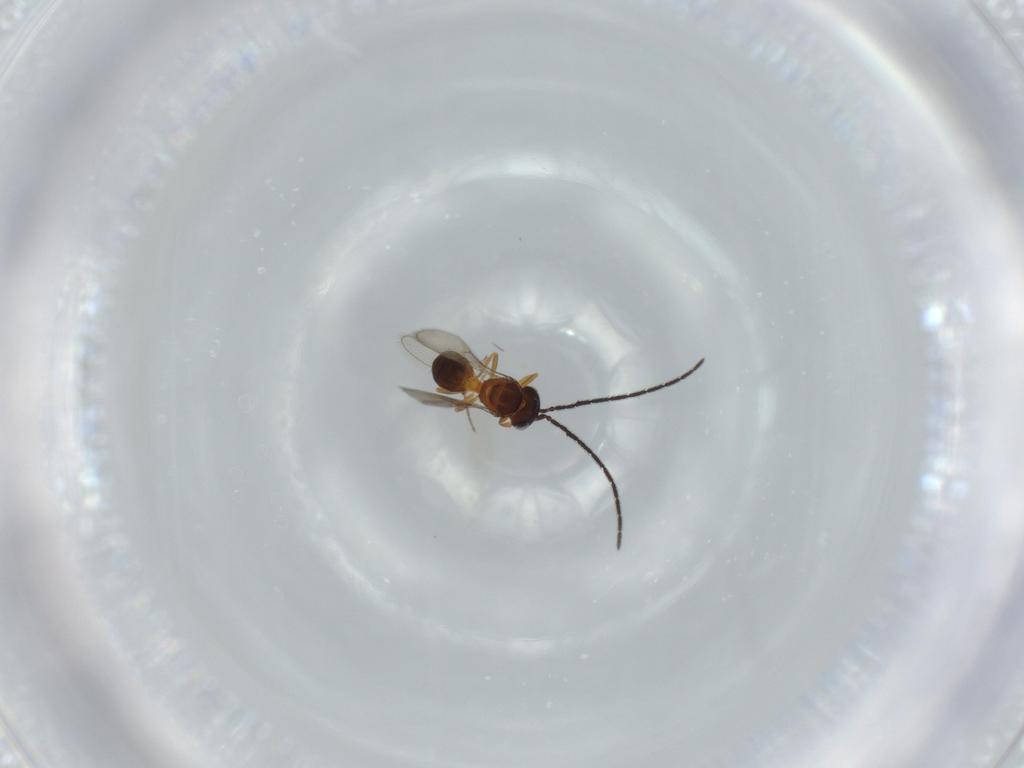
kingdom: Animalia
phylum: Arthropoda
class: Insecta
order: Hymenoptera
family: Scelionidae
